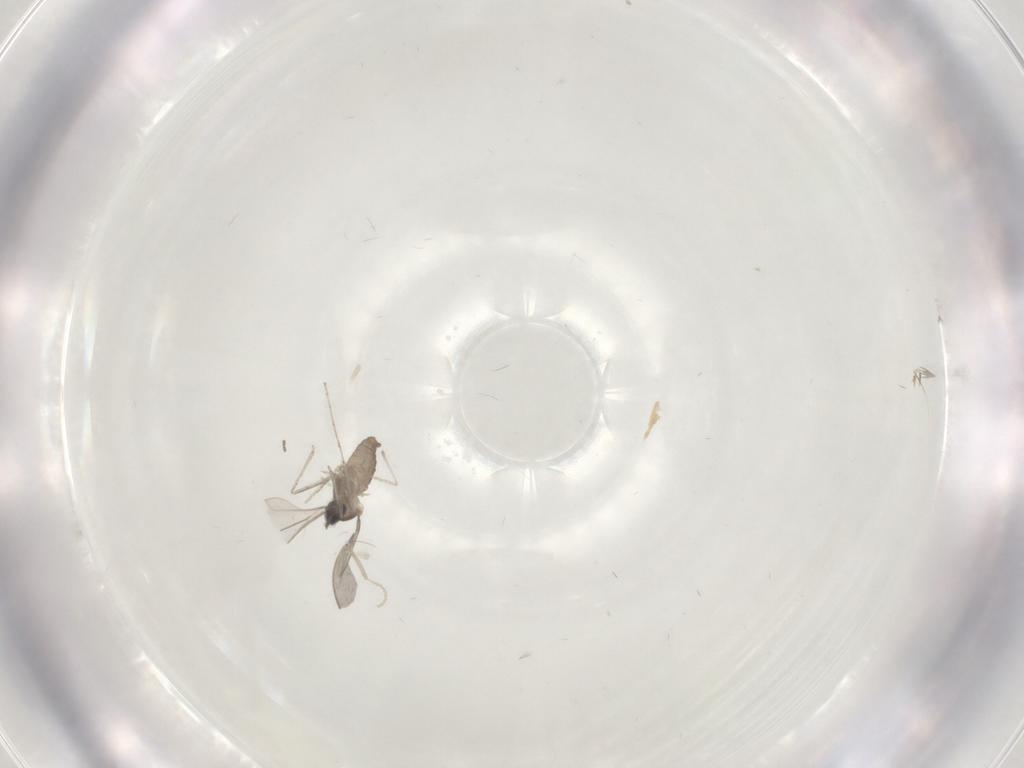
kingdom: Animalia
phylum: Arthropoda
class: Insecta
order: Diptera
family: Cecidomyiidae
